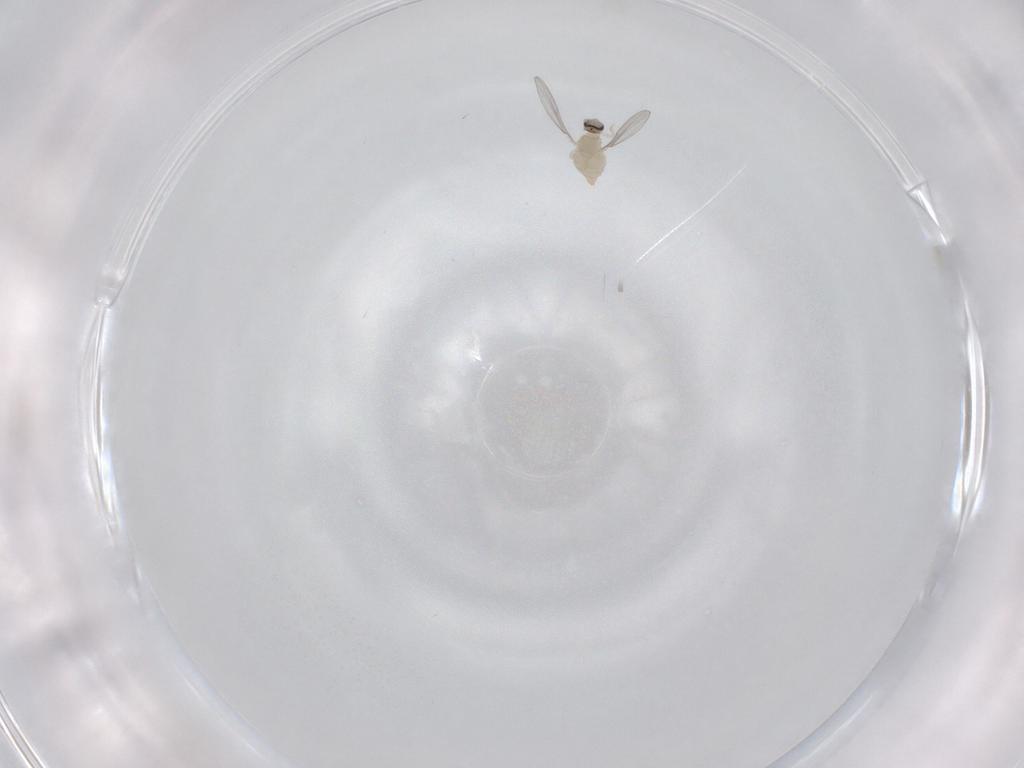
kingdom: Animalia
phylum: Arthropoda
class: Insecta
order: Diptera
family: Cecidomyiidae
